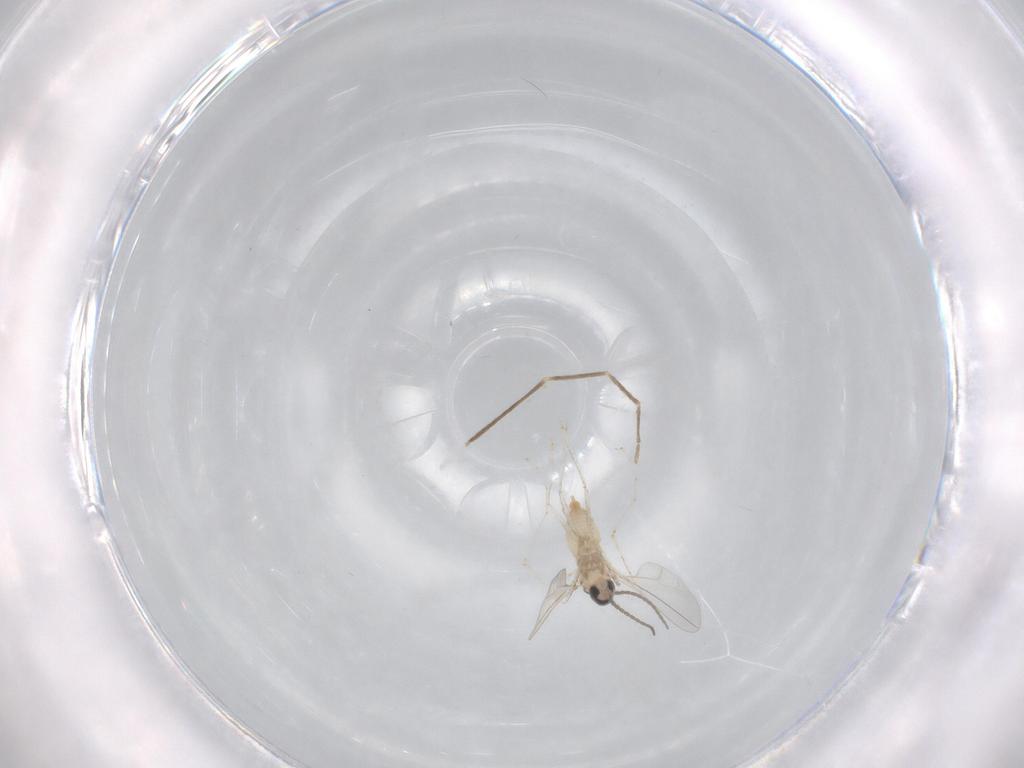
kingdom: Animalia
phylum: Arthropoda
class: Insecta
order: Diptera
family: Cecidomyiidae
